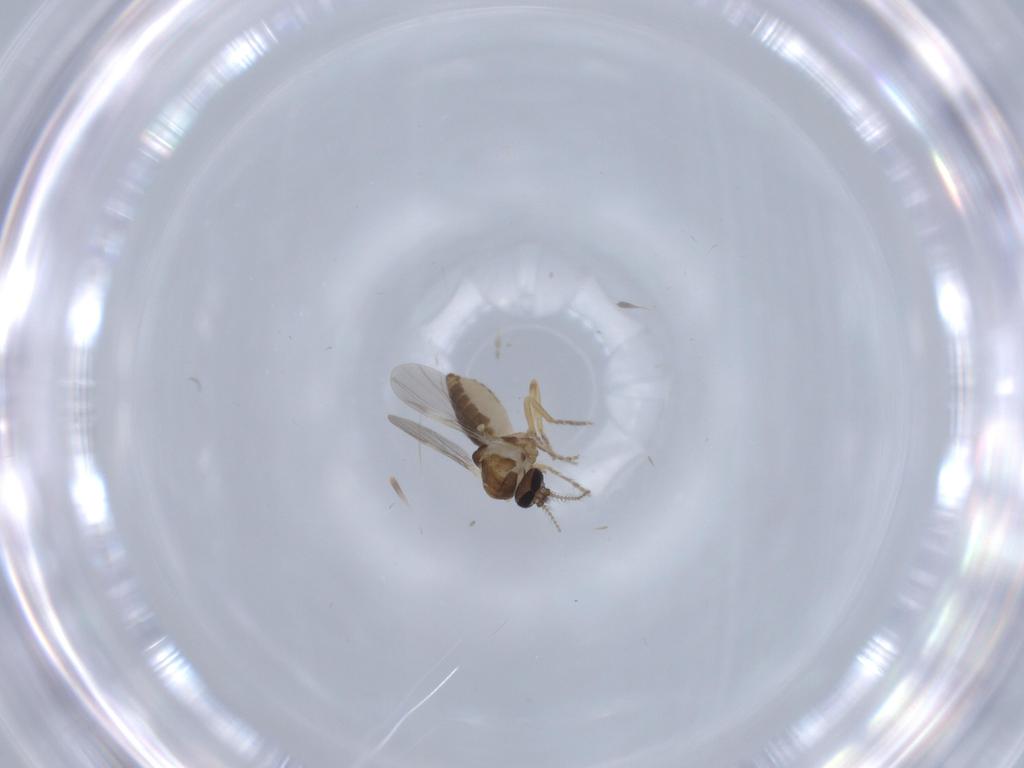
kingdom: Animalia
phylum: Arthropoda
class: Insecta
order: Diptera
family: Ceratopogonidae
